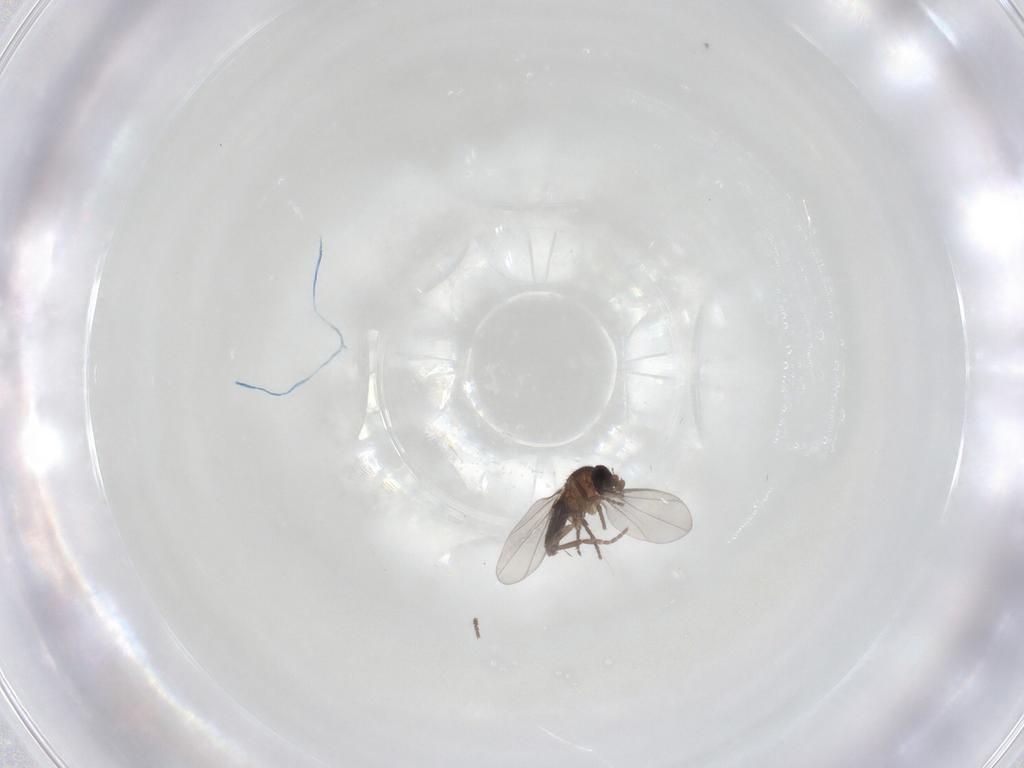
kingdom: Animalia
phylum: Arthropoda
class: Insecta
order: Diptera
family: Phoridae
